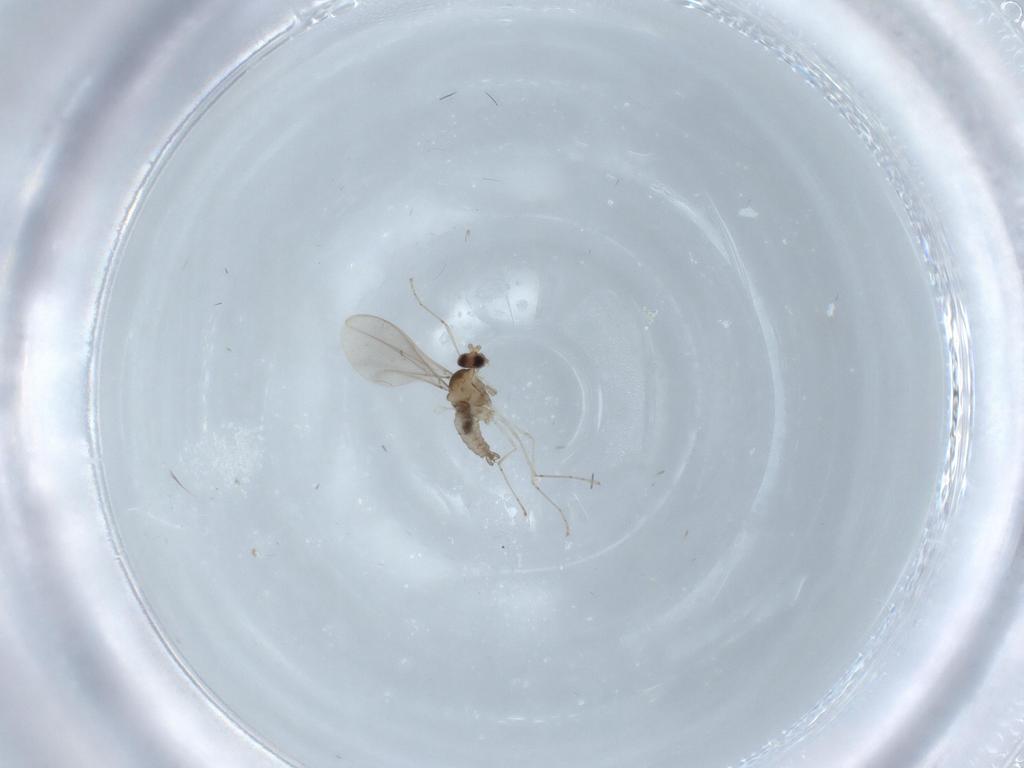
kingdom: Animalia
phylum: Arthropoda
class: Insecta
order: Diptera
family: Cecidomyiidae
